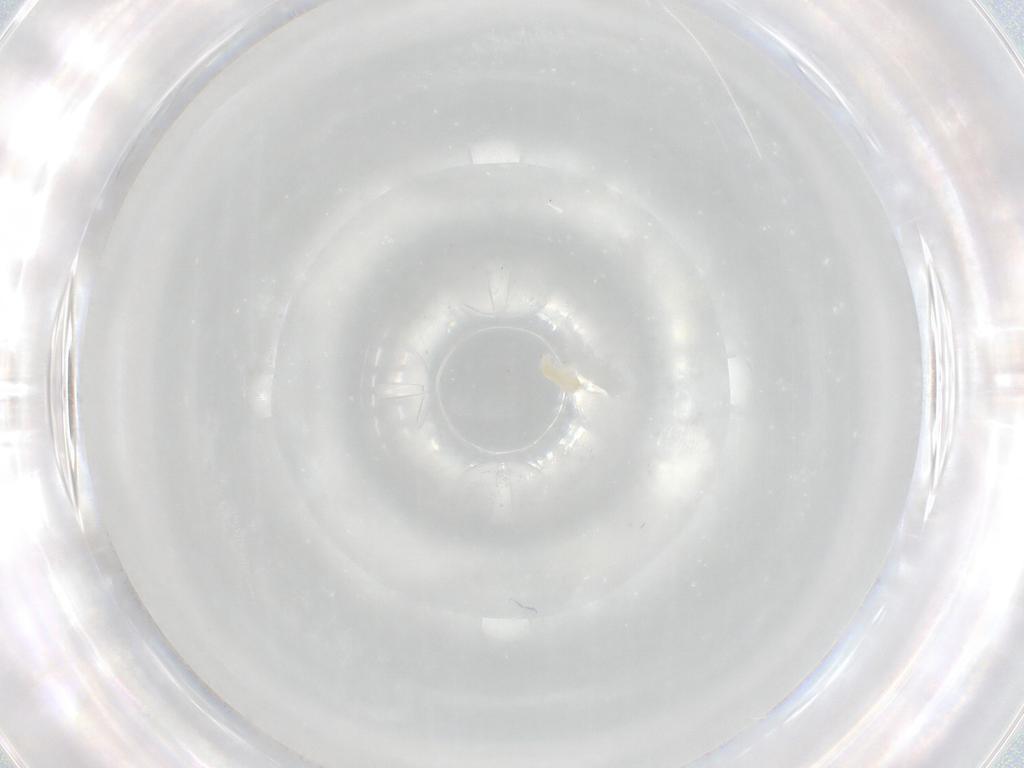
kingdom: Animalia
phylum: Arthropoda
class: Arachnida
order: Trombidiformes
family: Eupodidae
